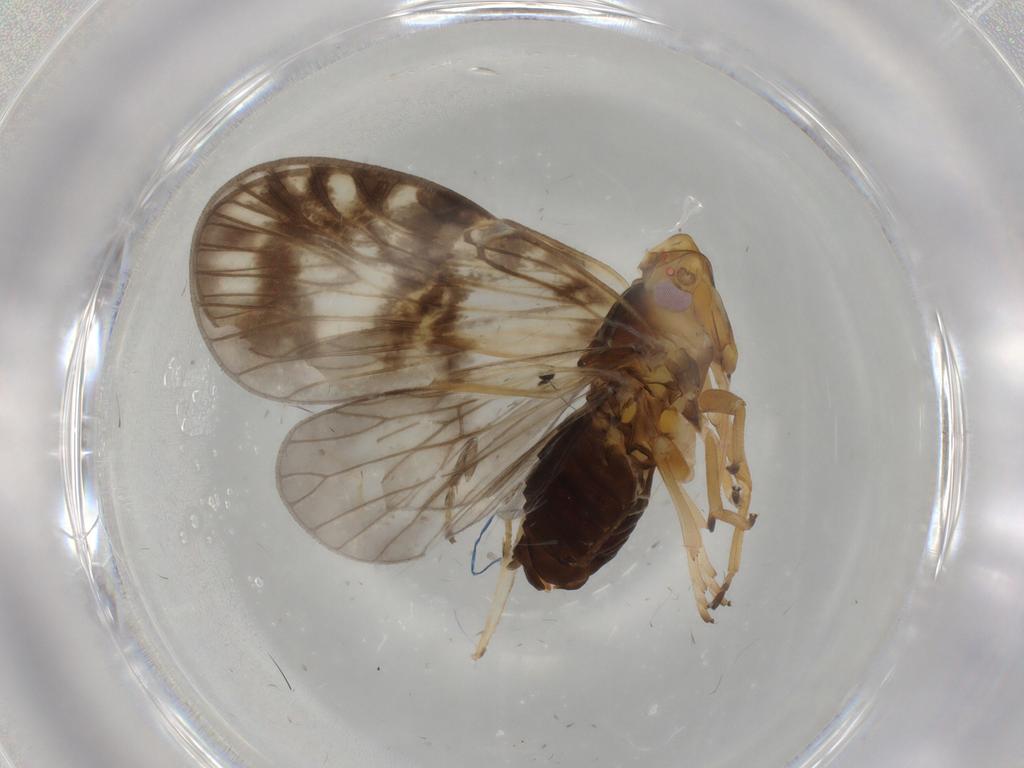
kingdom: Animalia
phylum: Arthropoda
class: Insecta
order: Hemiptera
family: Cixiidae
